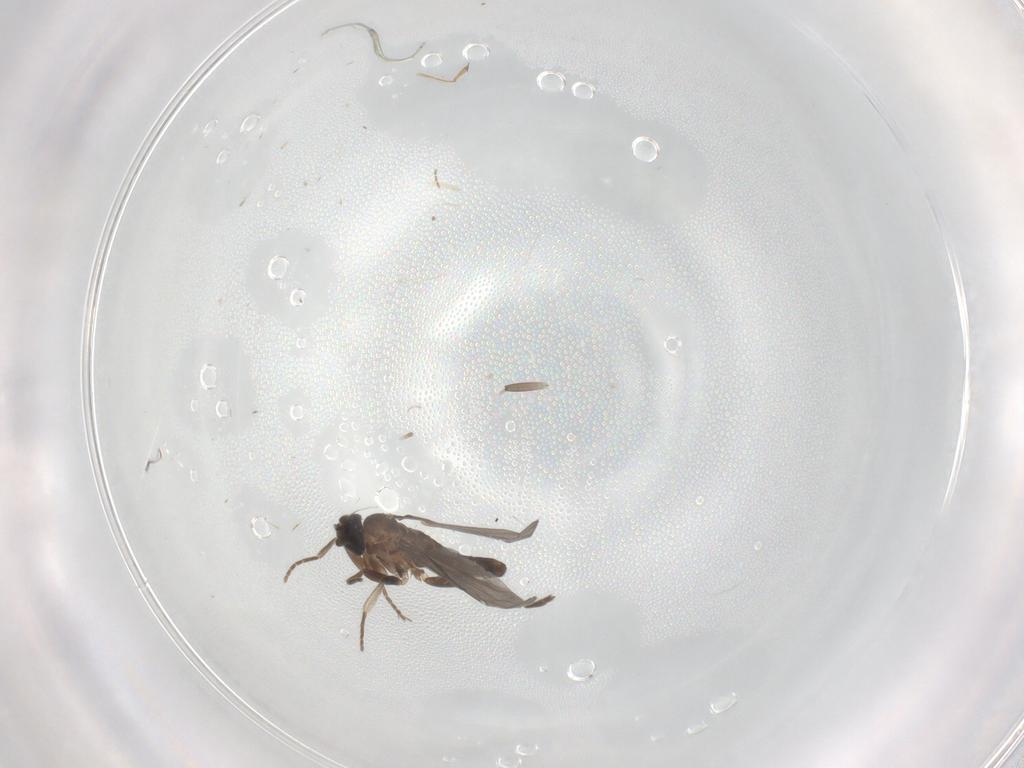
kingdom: Animalia
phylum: Arthropoda
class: Insecta
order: Diptera
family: Cecidomyiidae
